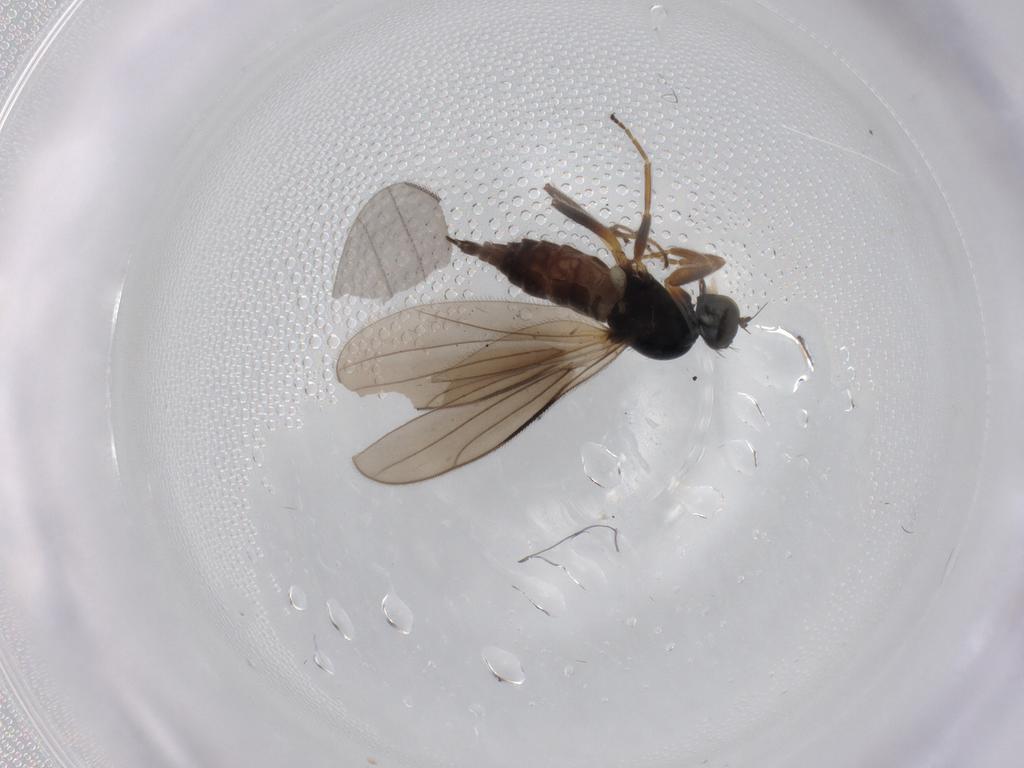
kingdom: Animalia
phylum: Arthropoda
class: Insecta
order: Diptera
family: Hybotidae
